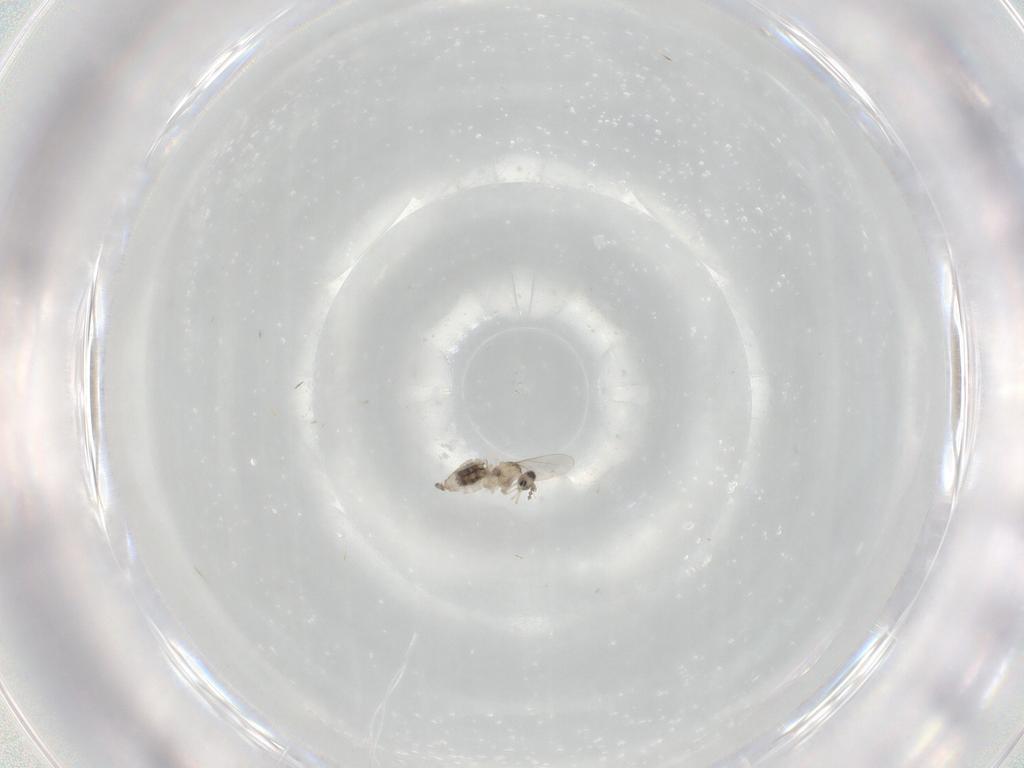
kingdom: Animalia
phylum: Arthropoda
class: Insecta
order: Diptera
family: Cecidomyiidae
